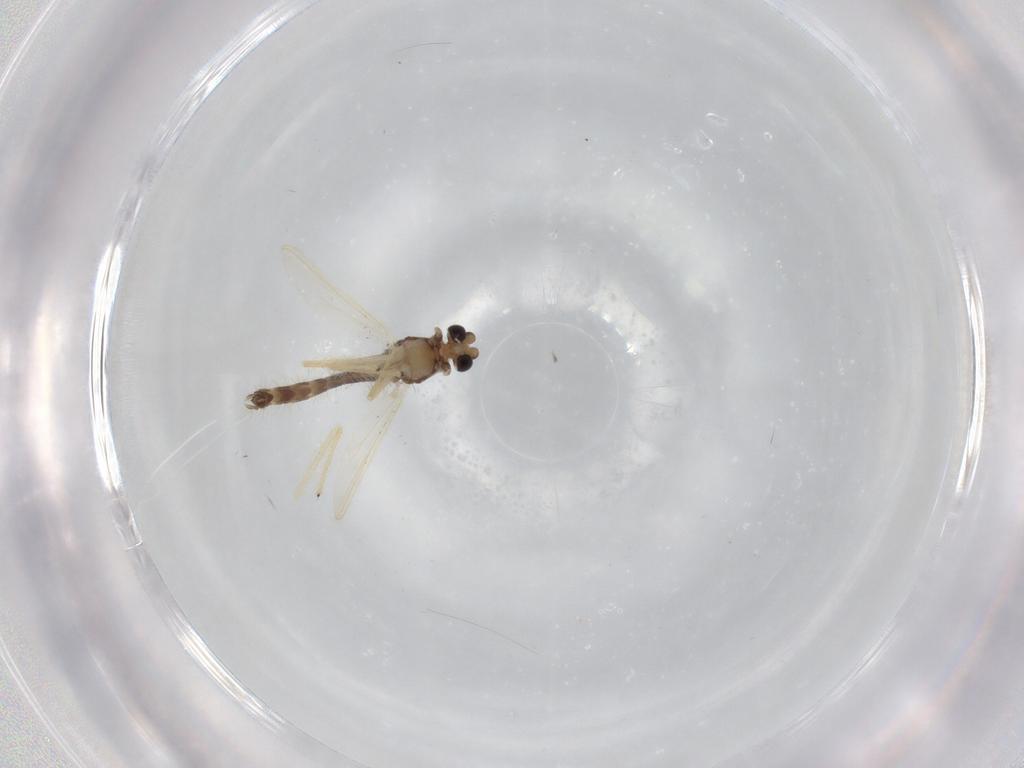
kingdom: Animalia
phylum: Arthropoda
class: Insecta
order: Diptera
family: Chironomidae
